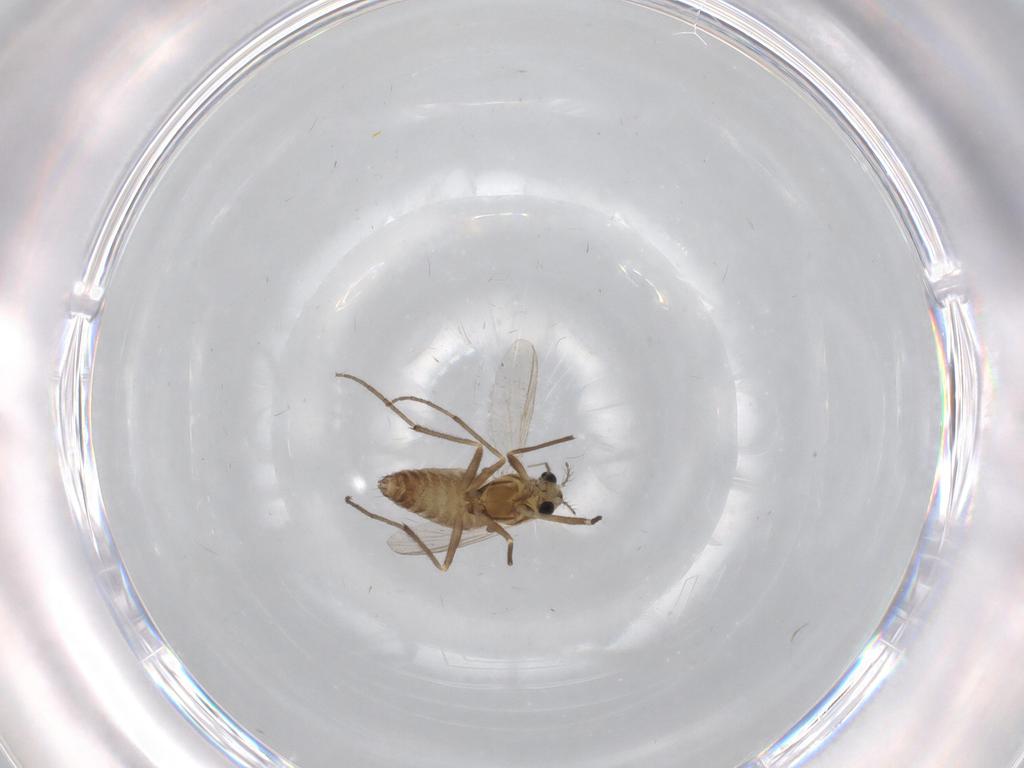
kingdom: Animalia
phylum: Arthropoda
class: Insecta
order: Diptera
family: Chironomidae
